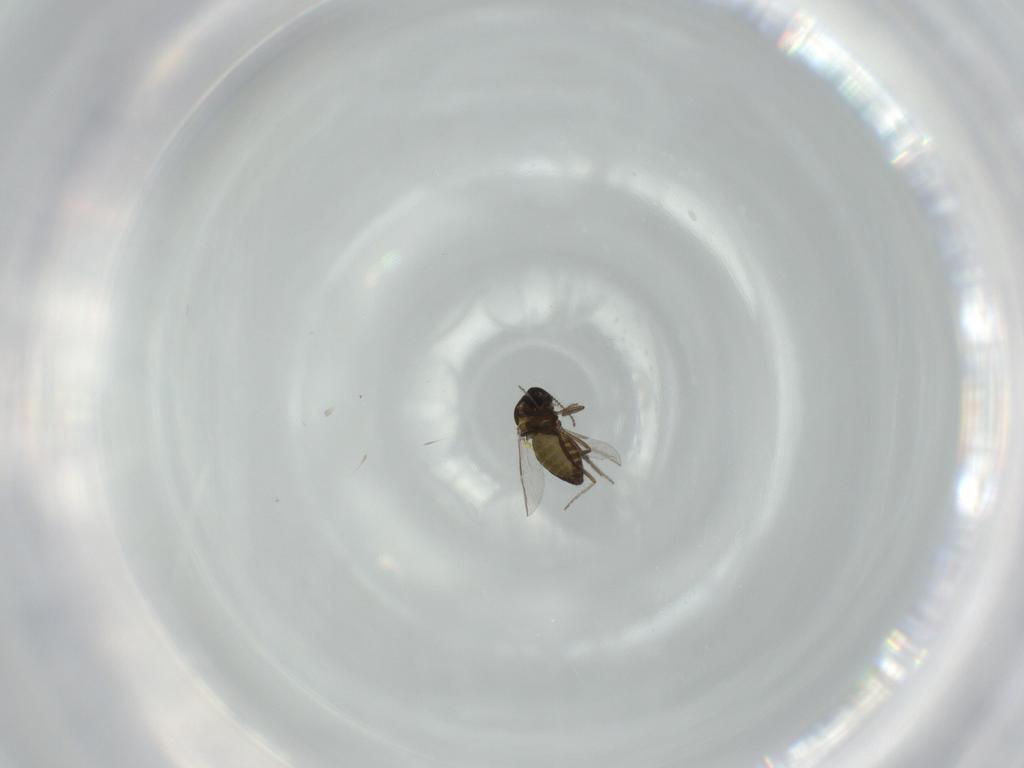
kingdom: Animalia
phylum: Arthropoda
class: Insecta
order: Diptera
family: Ceratopogonidae
